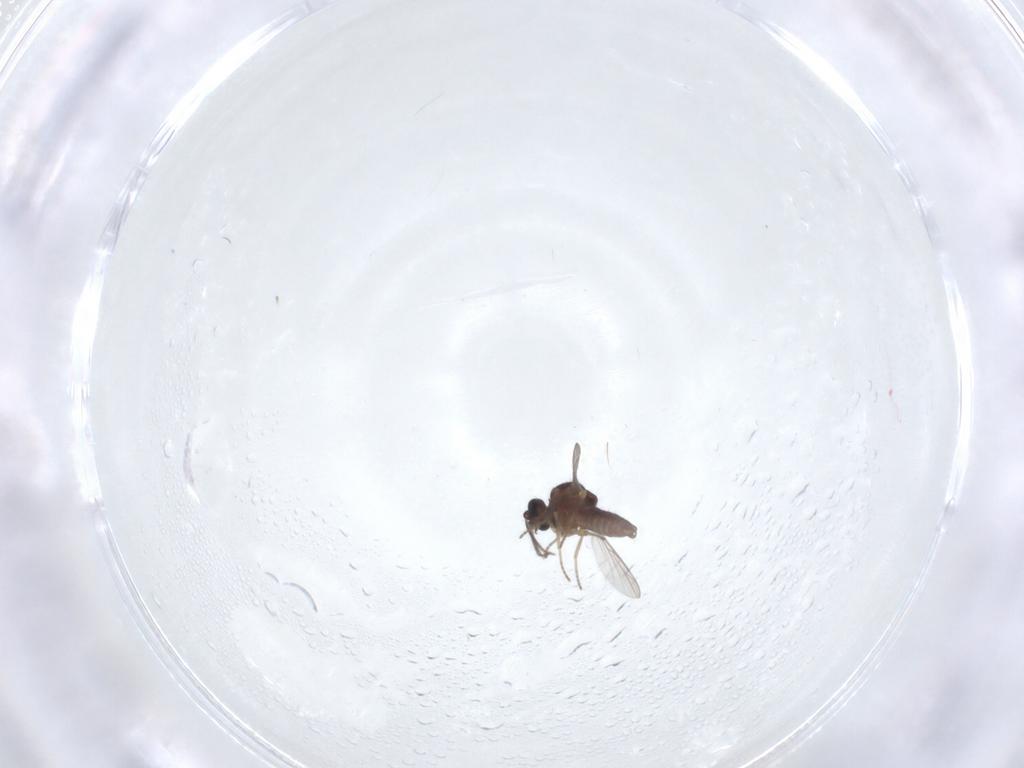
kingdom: Animalia
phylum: Arthropoda
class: Insecta
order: Diptera
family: Ceratopogonidae
